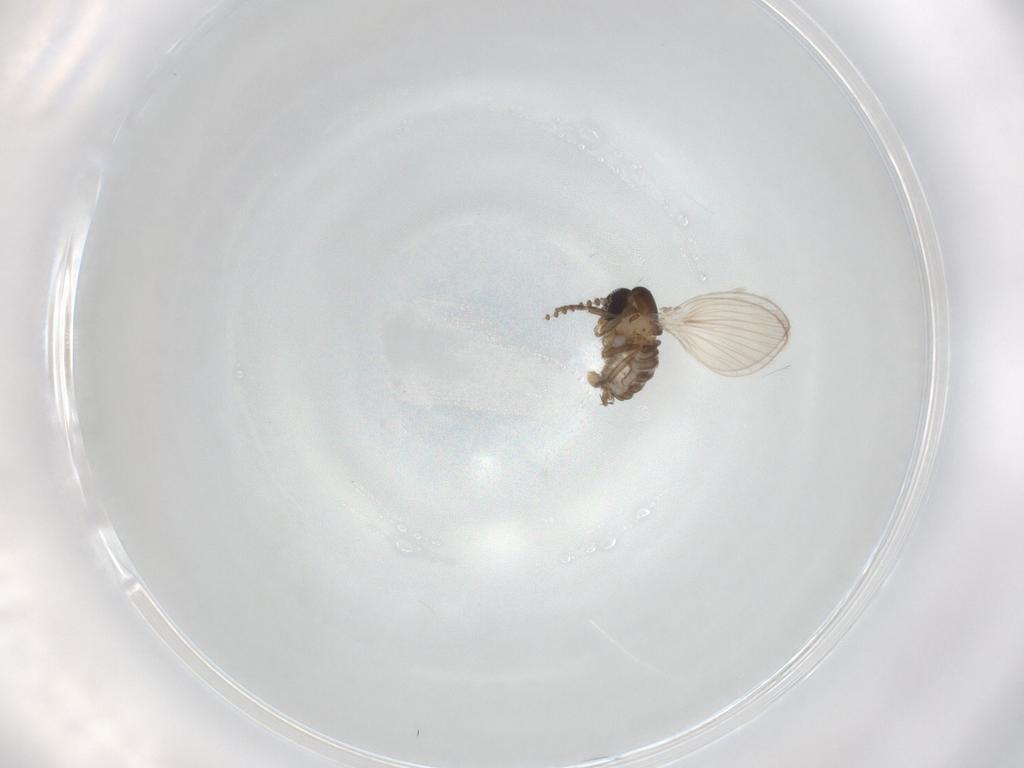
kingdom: Animalia
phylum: Arthropoda
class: Insecta
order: Diptera
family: Psychodidae
